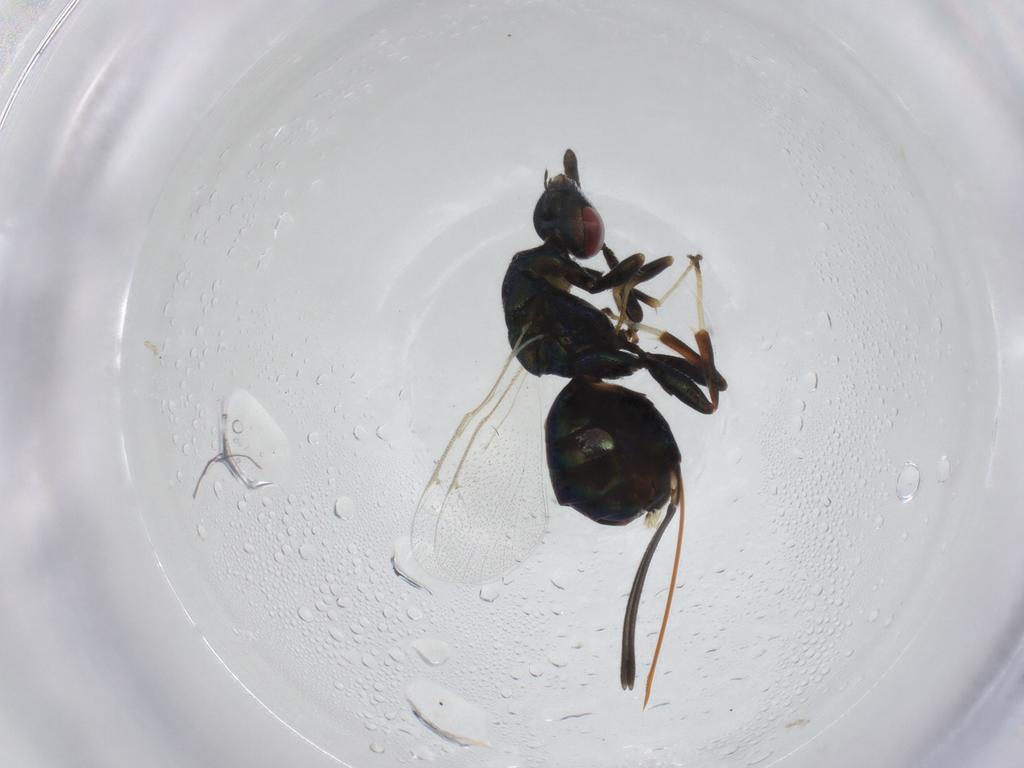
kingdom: Animalia
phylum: Arthropoda
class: Insecta
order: Hymenoptera
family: Torymidae
